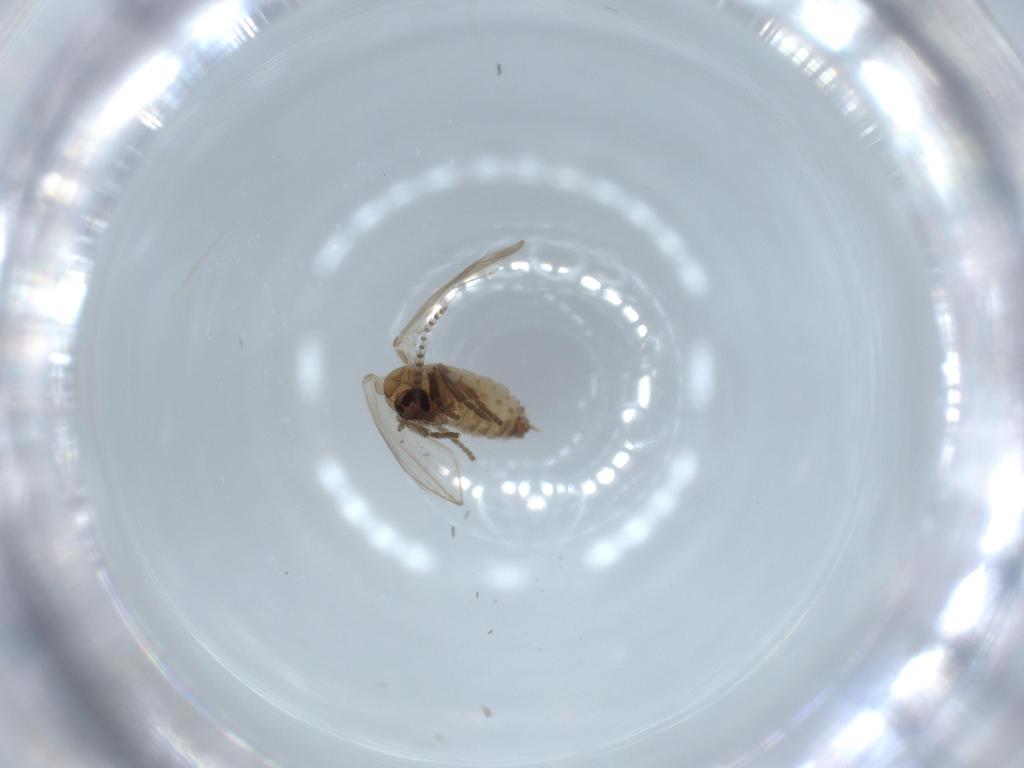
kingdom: Animalia
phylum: Arthropoda
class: Insecta
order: Diptera
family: Psychodidae
